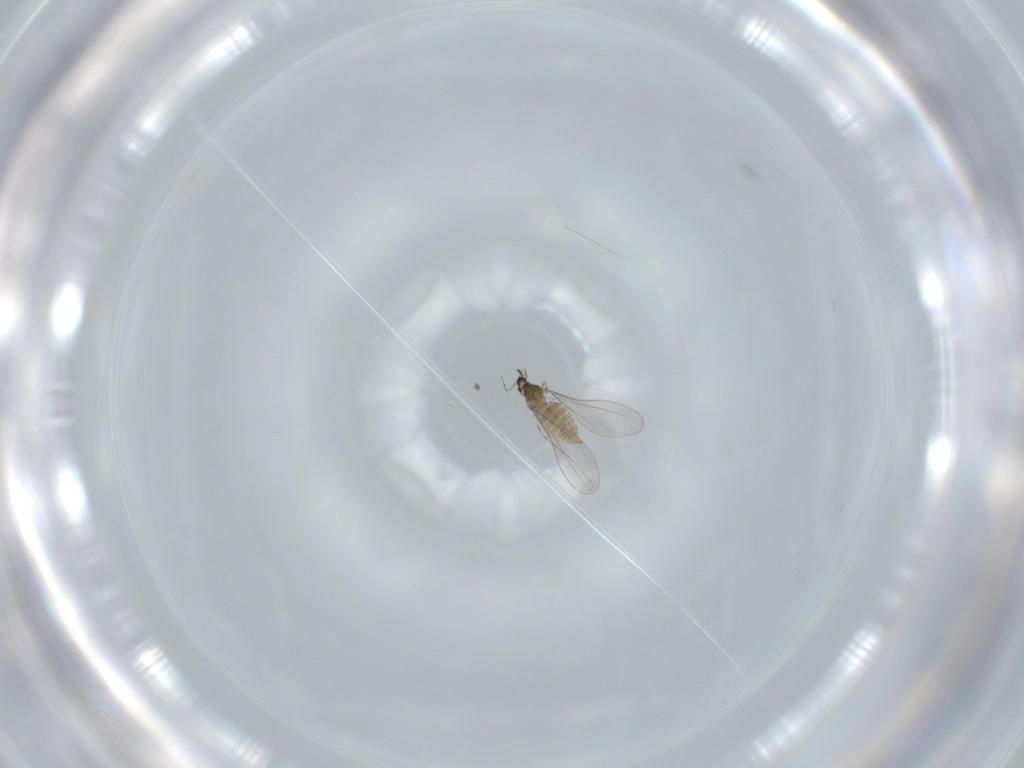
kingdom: Animalia
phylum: Arthropoda
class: Insecta
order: Diptera
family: Cecidomyiidae
